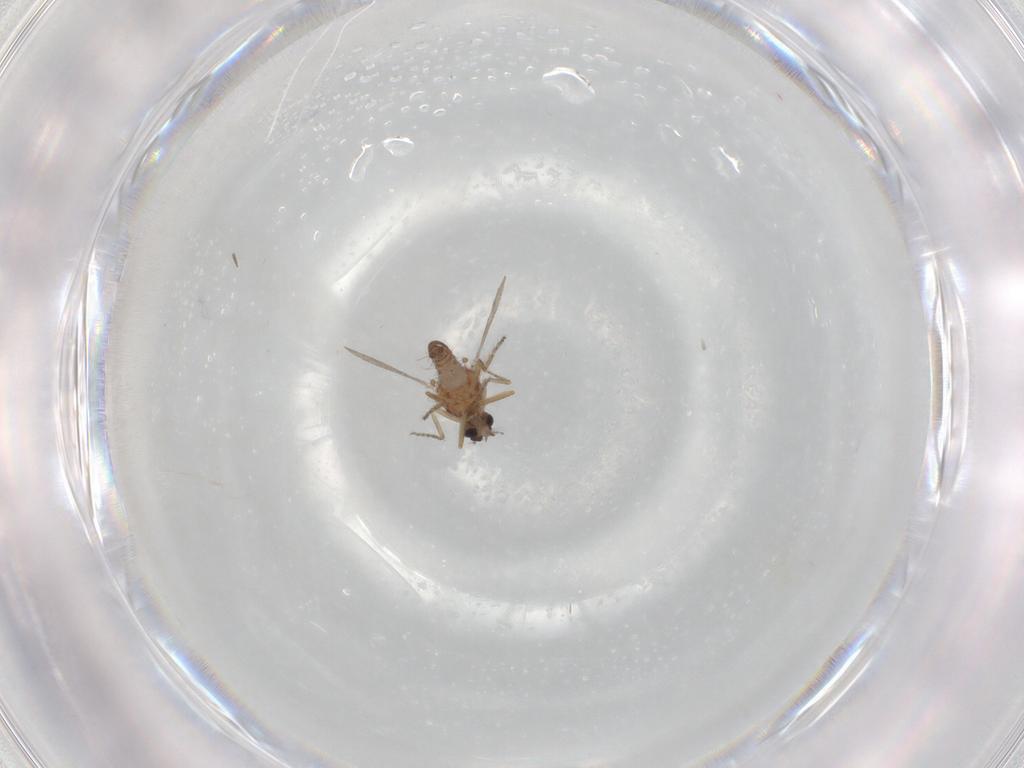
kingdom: Animalia
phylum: Arthropoda
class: Insecta
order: Diptera
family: Ceratopogonidae
